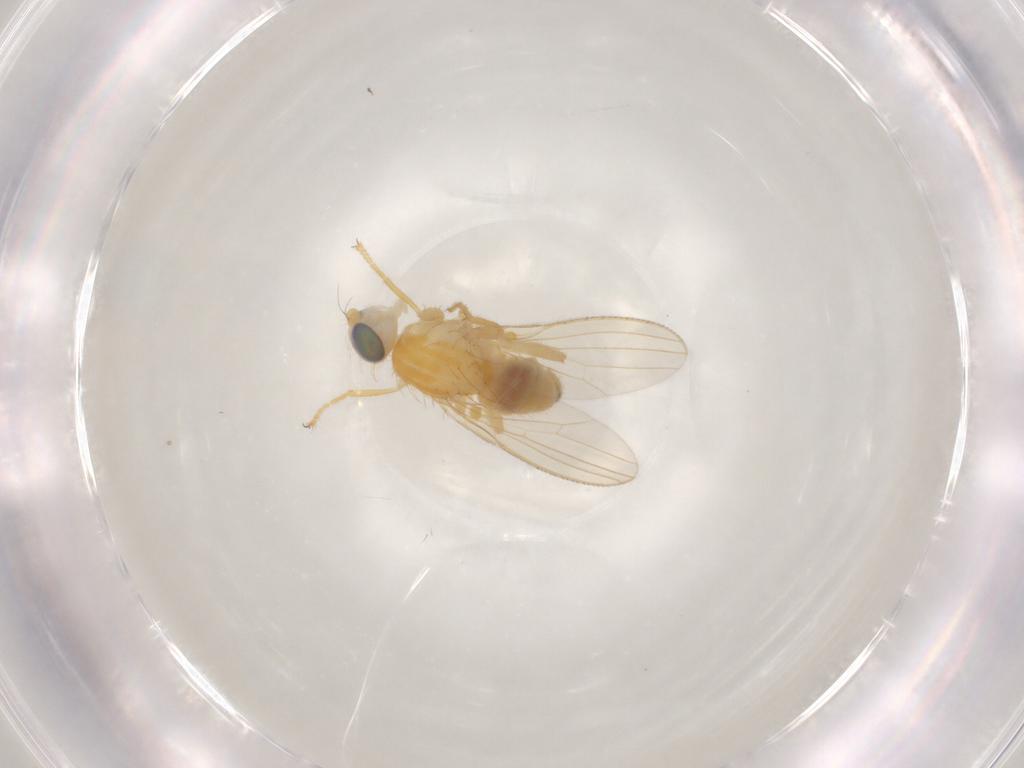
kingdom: Animalia
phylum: Arthropoda
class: Insecta
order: Diptera
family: Chyromyidae
